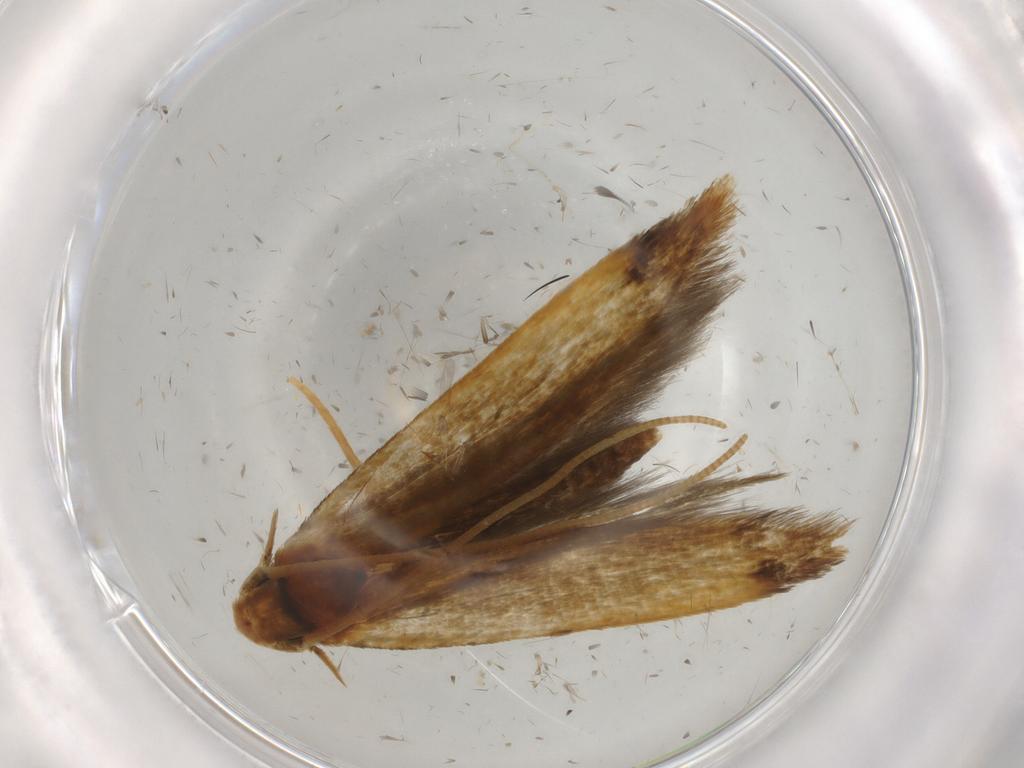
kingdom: Animalia
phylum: Arthropoda
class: Insecta
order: Lepidoptera
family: Tineidae
